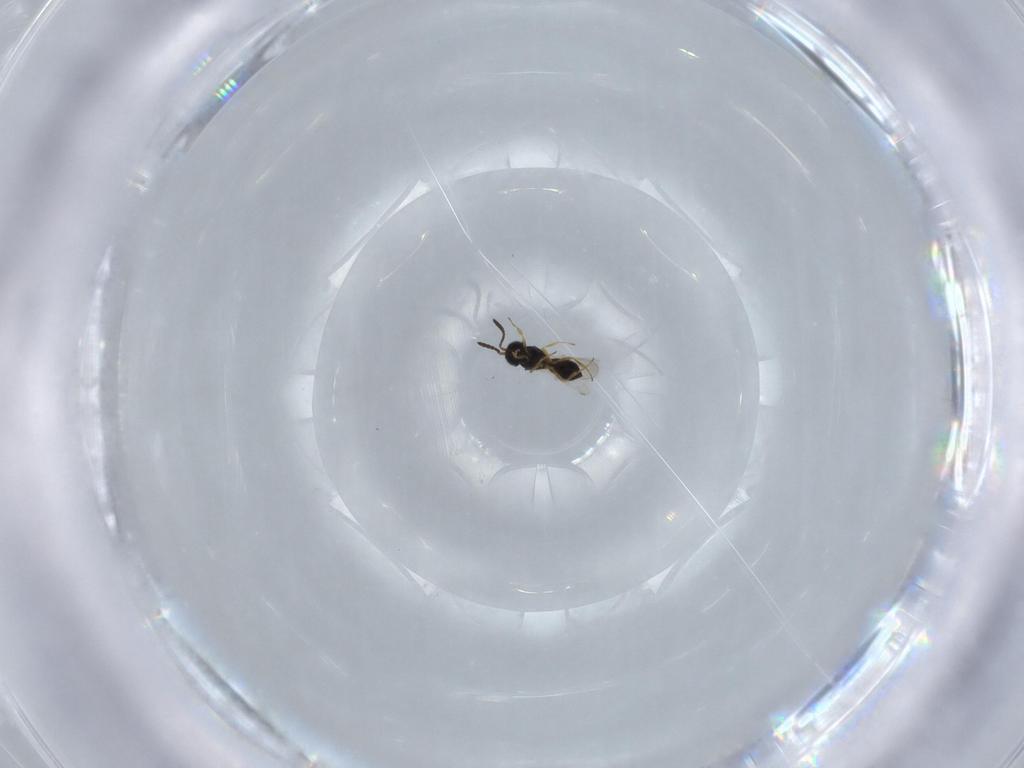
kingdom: Animalia
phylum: Arthropoda
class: Insecta
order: Hymenoptera
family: Scelionidae
